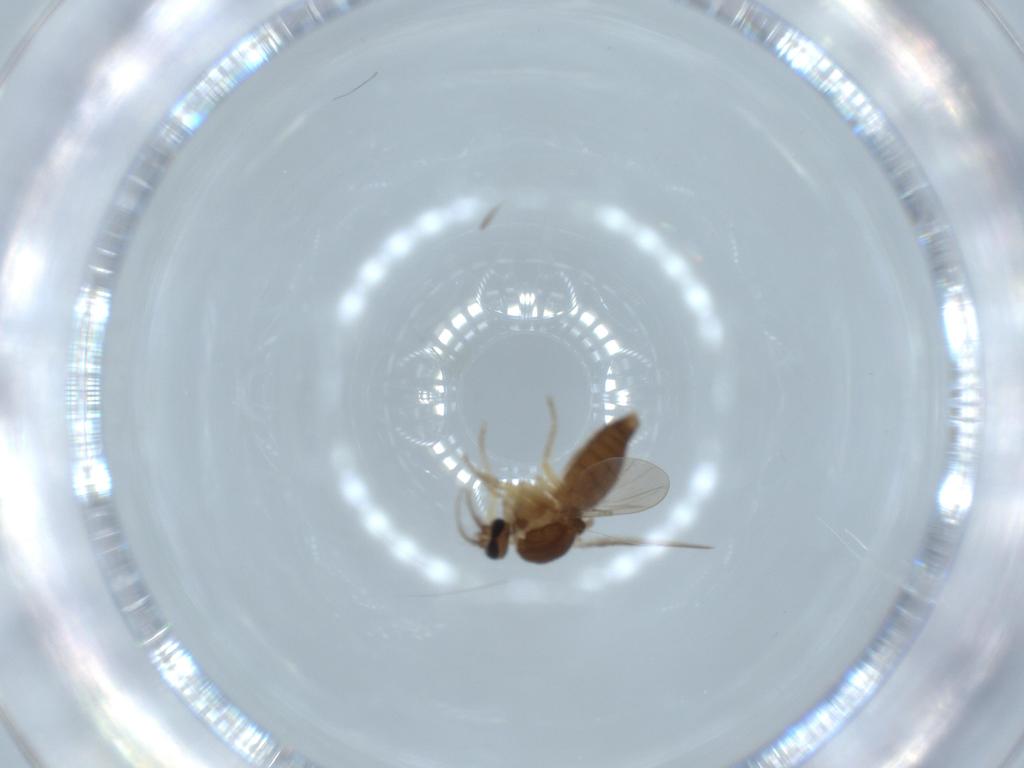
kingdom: Animalia
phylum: Arthropoda
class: Insecta
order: Diptera
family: Ceratopogonidae
